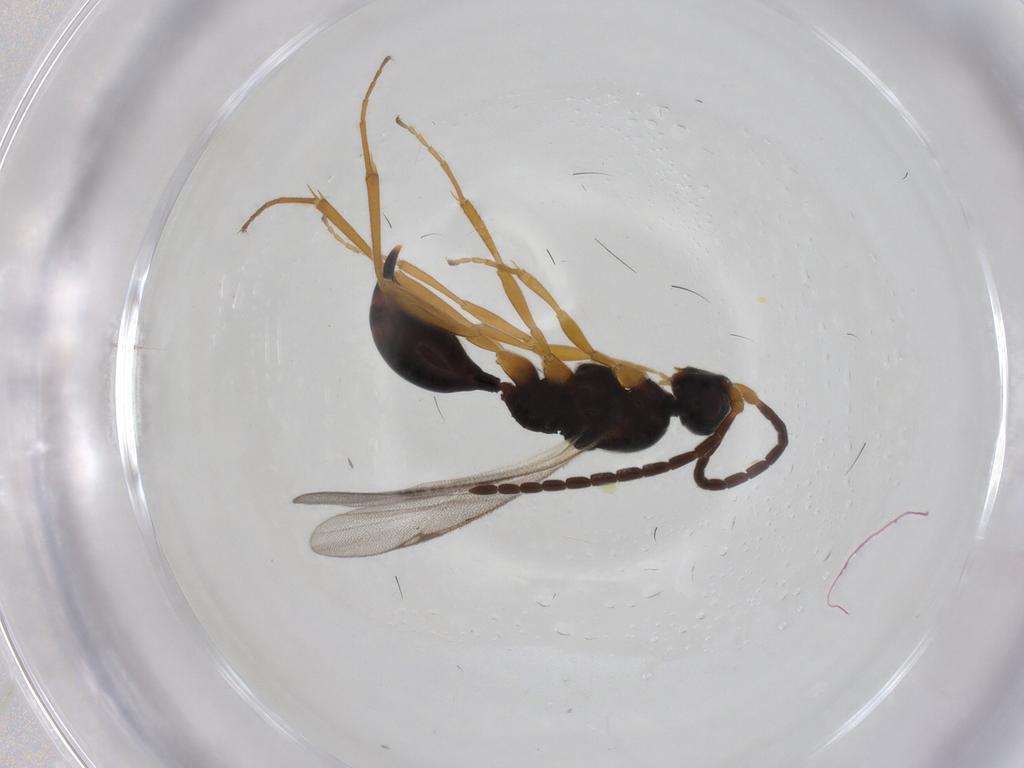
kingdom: Animalia
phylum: Arthropoda
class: Insecta
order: Hymenoptera
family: Proctotrupidae
